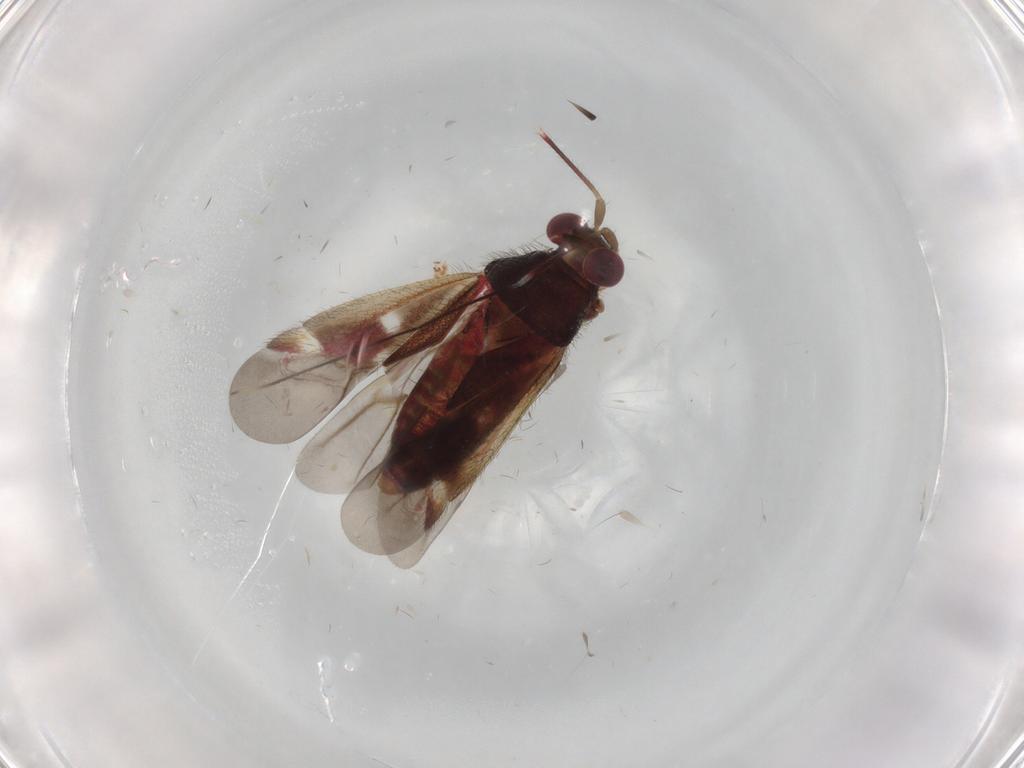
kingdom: Animalia
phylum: Arthropoda
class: Insecta
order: Hemiptera
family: Miridae
